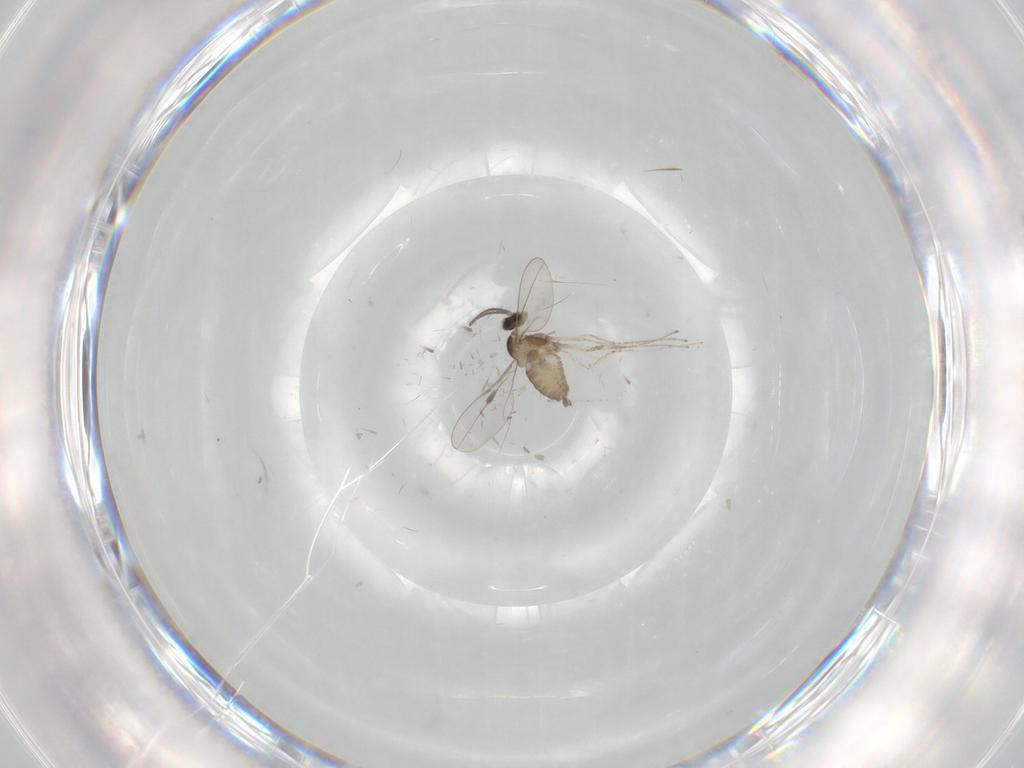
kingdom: Animalia
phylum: Arthropoda
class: Insecta
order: Diptera
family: Cecidomyiidae
